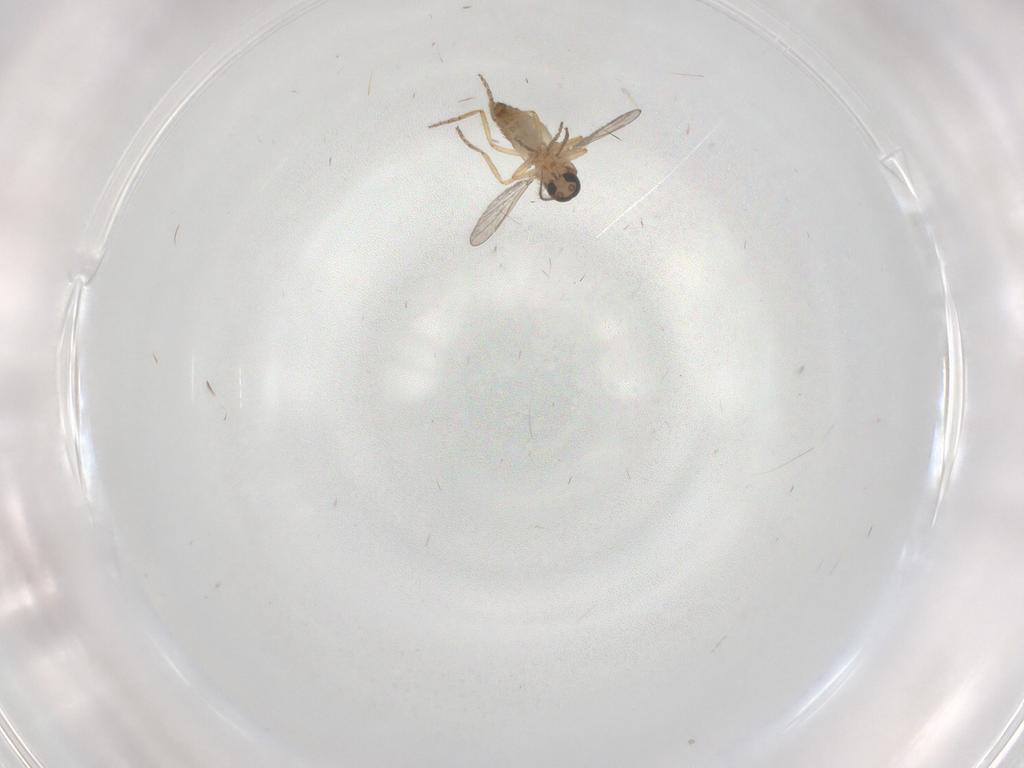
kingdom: Animalia
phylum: Arthropoda
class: Insecta
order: Diptera
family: Ceratopogonidae
